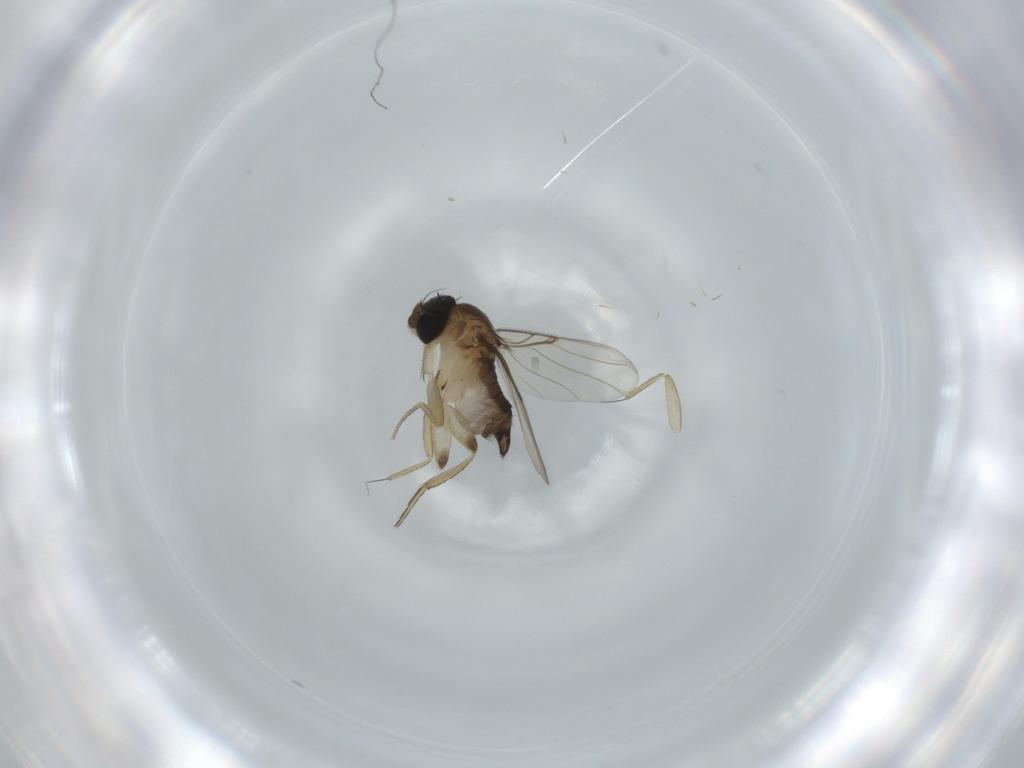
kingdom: Animalia
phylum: Arthropoda
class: Insecta
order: Diptera
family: Phoridae
